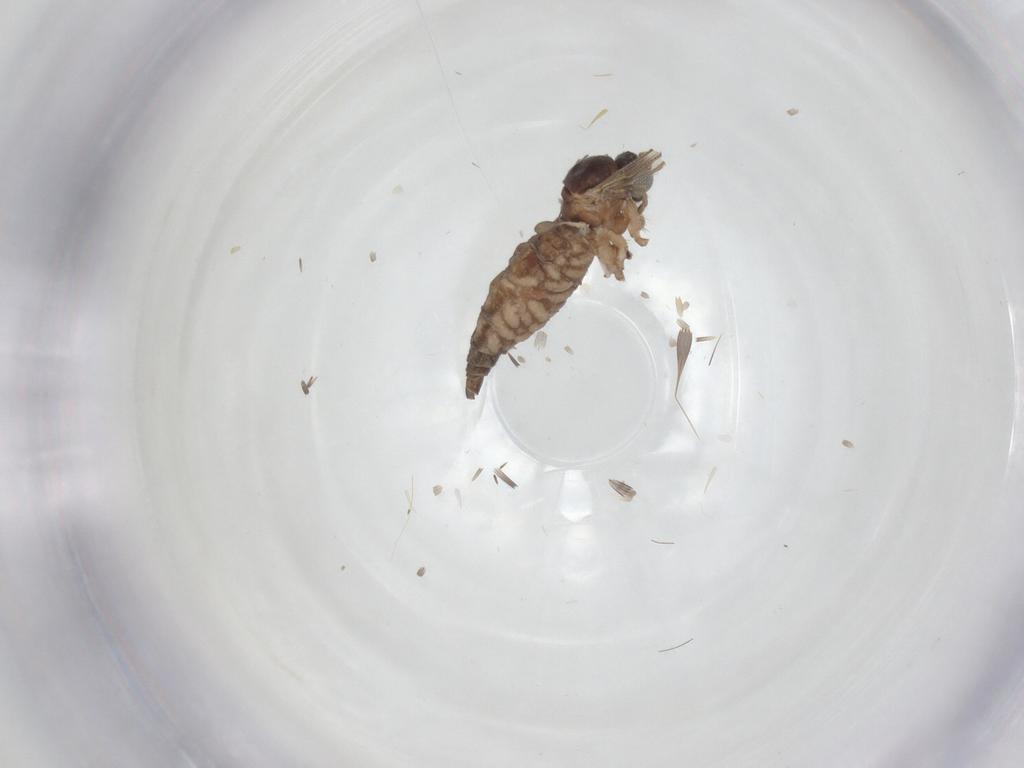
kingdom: Animalia
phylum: Arthropoda
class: Insecta
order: Diptera
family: Sciaridae
